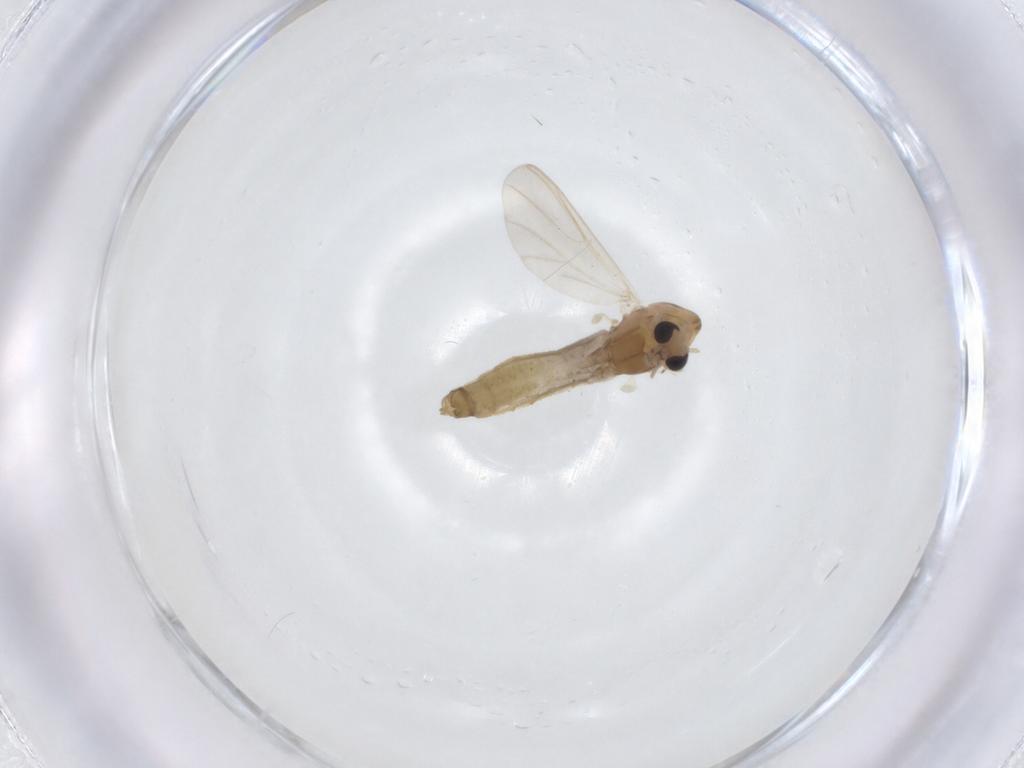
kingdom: Animalia
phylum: Arthropoda
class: Insecta
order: Diptera
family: Chironomidae
